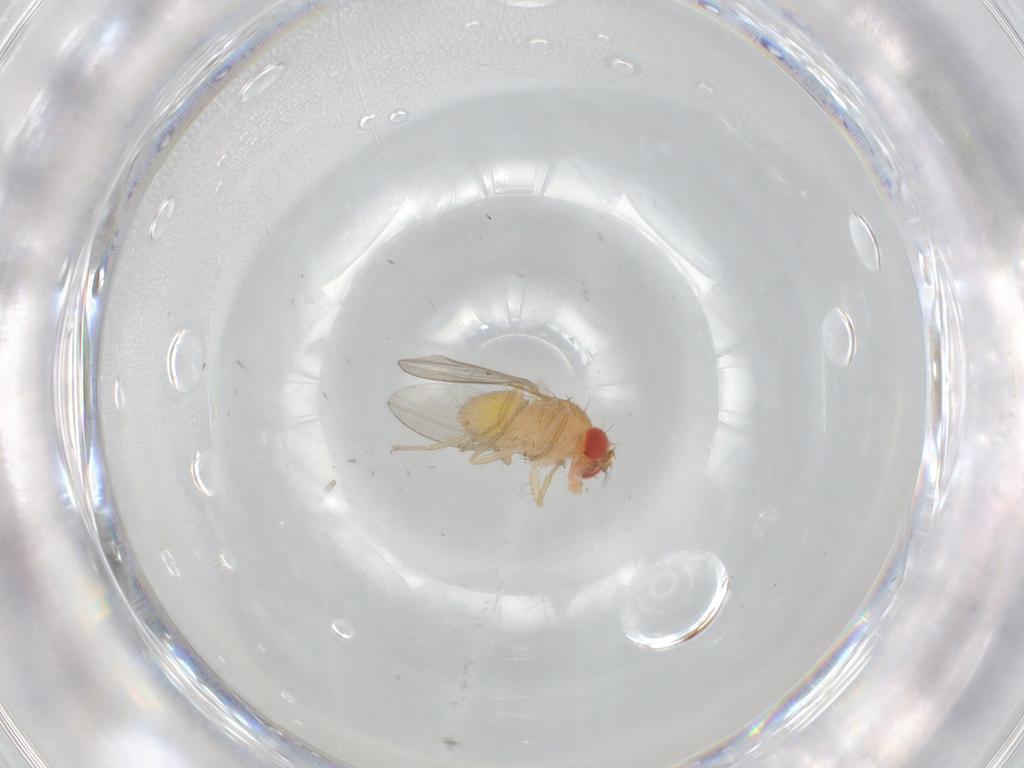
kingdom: Animalia
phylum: Arthropoda
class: Insecta
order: Diptera
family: Drosophilidae
